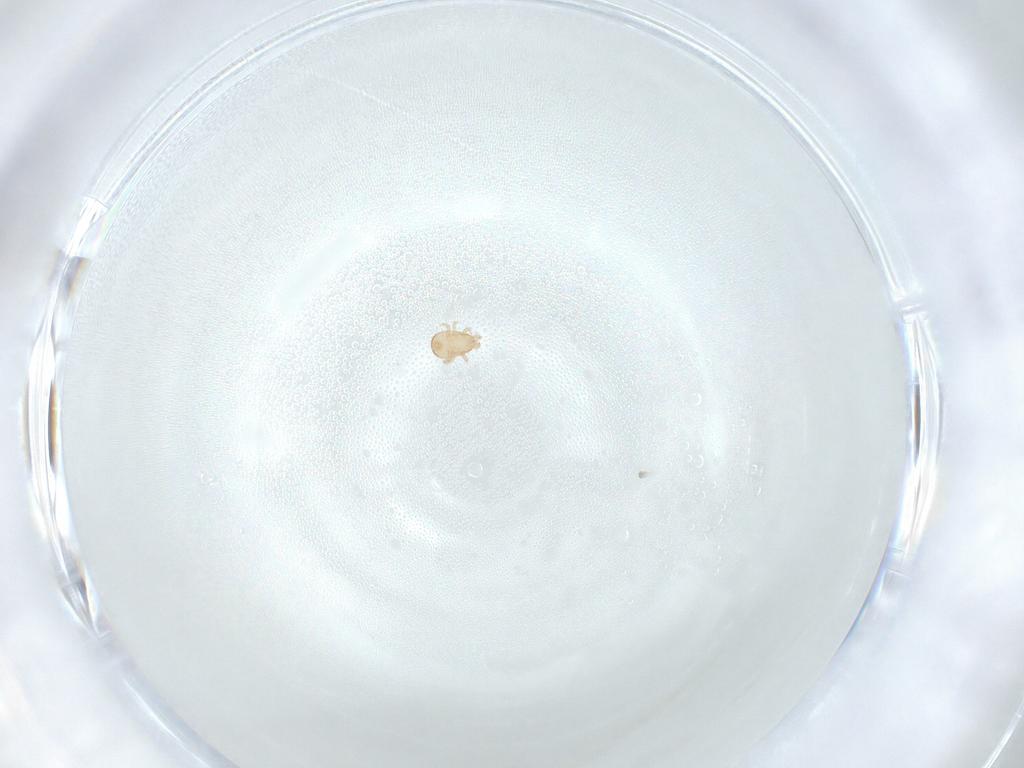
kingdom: Animalia
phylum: Arthropoda
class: Arachnida
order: Mesostigmata
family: Ascidae
